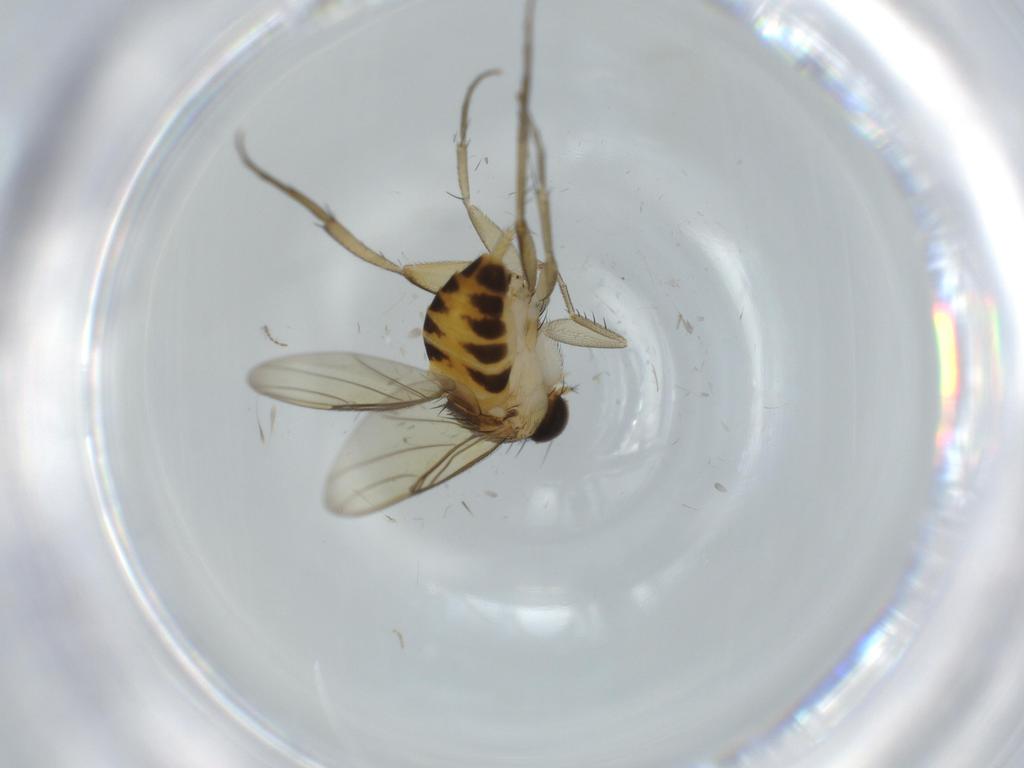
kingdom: Animalia
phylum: Arthropoda
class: Insecta
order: Diptera
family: Phoridae
